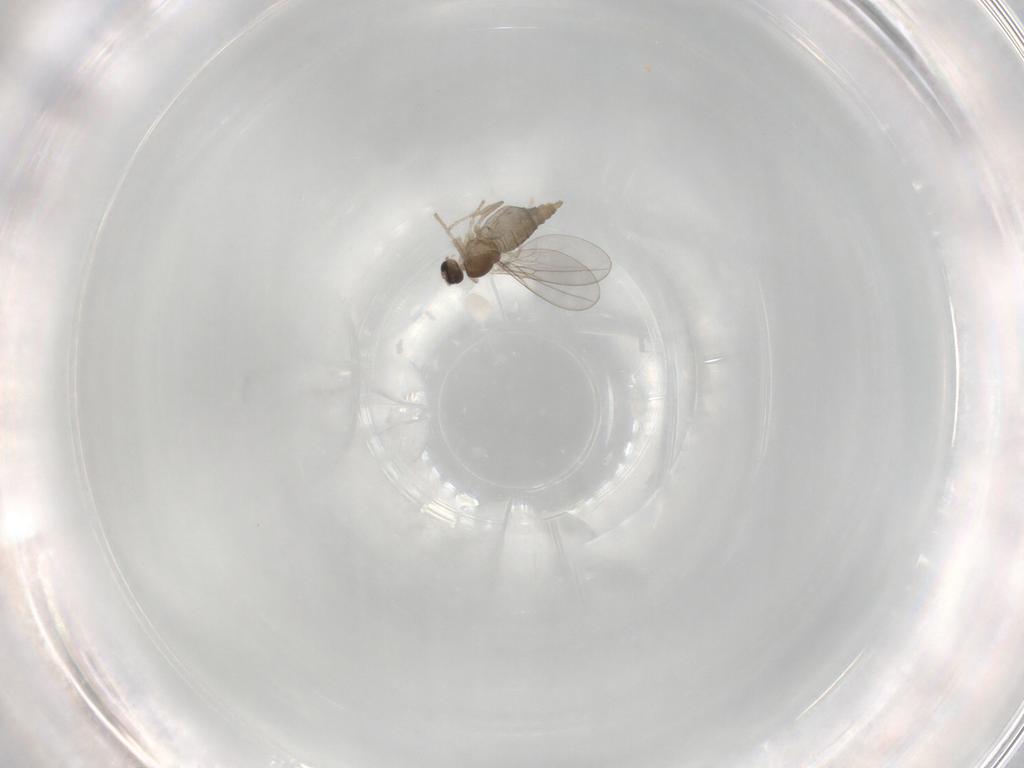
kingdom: Animalia
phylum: Arthropoda
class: Insecta
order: Diptera
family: Cecidomyiidae
